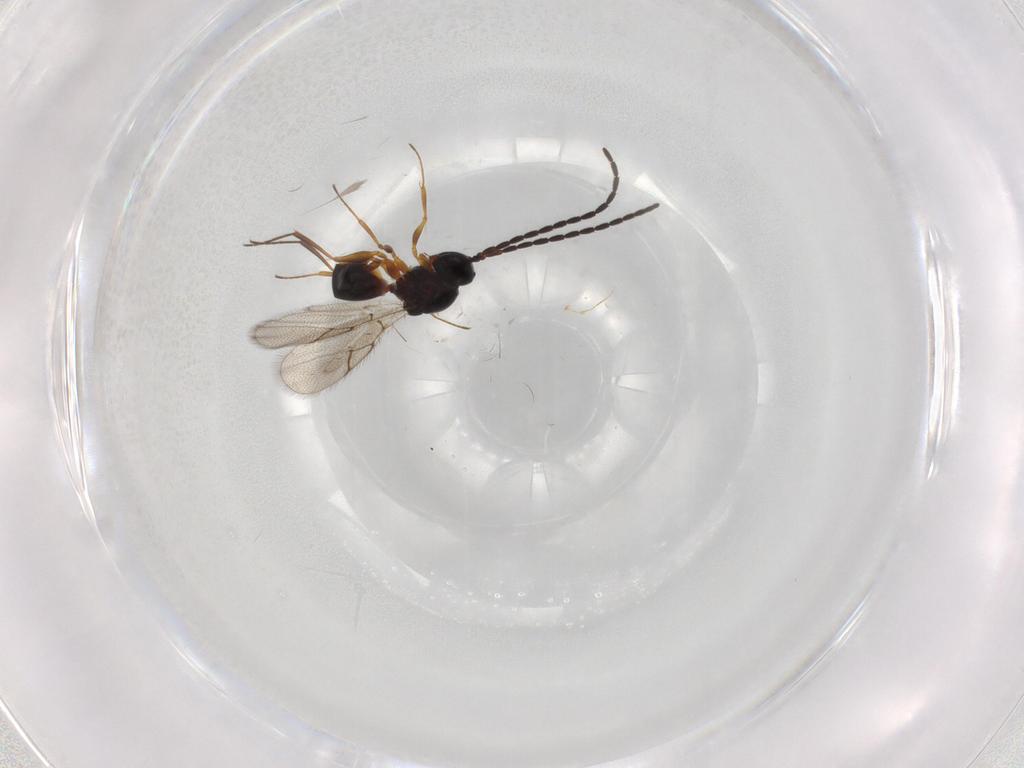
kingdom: Animalia
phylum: Arthropoda
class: Insecta
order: Hymenoptera
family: Figitidae
